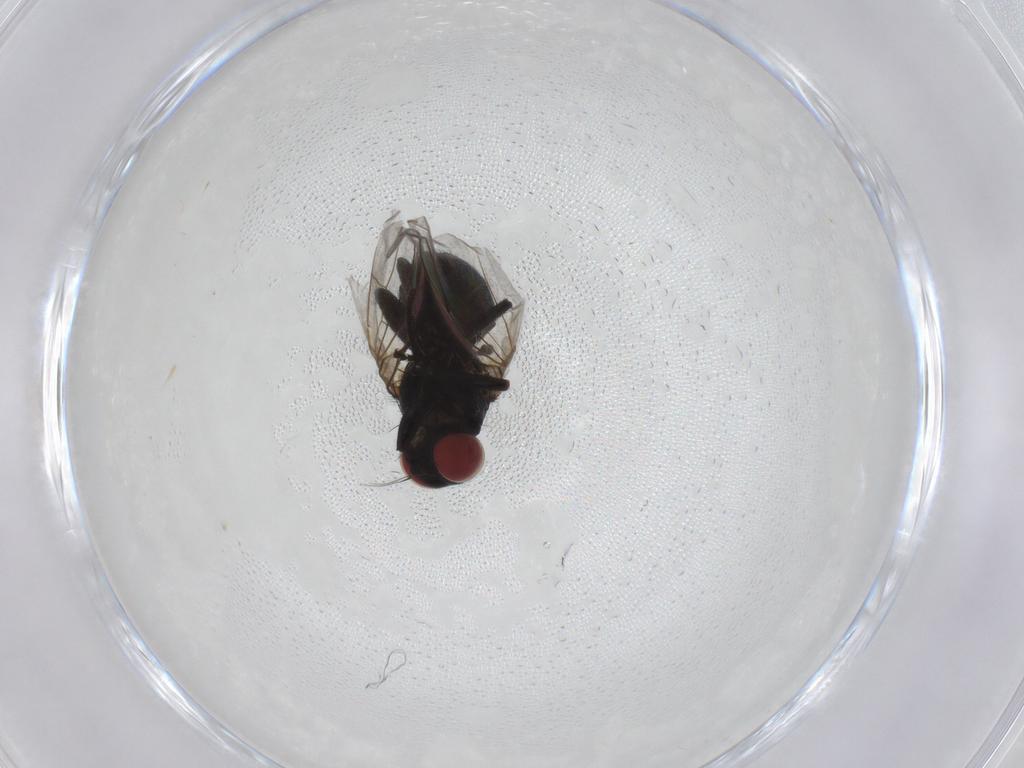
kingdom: Animalia
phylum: Arthropoda
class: Insecta
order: Diptera
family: Agromyzidae
